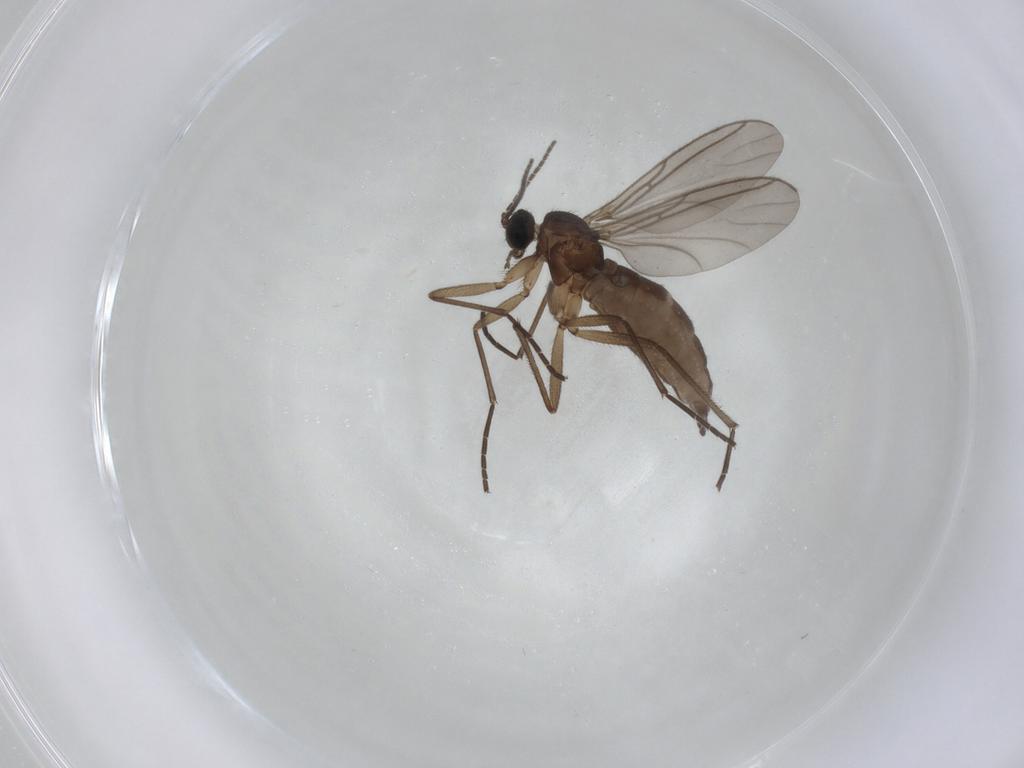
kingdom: Animalia
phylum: Arthropoda
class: Insecta
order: Diptera
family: Sciaridae
